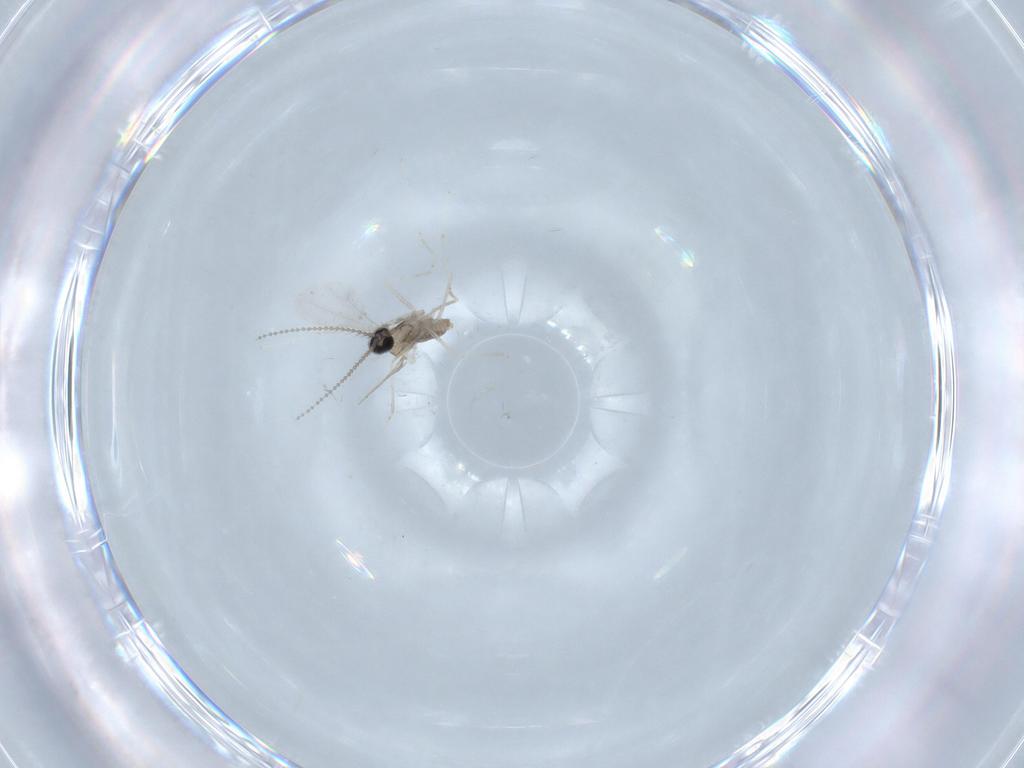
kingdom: Animalia
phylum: Arthropoda
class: Insecta
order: Diptera
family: Cecidomyiidae
